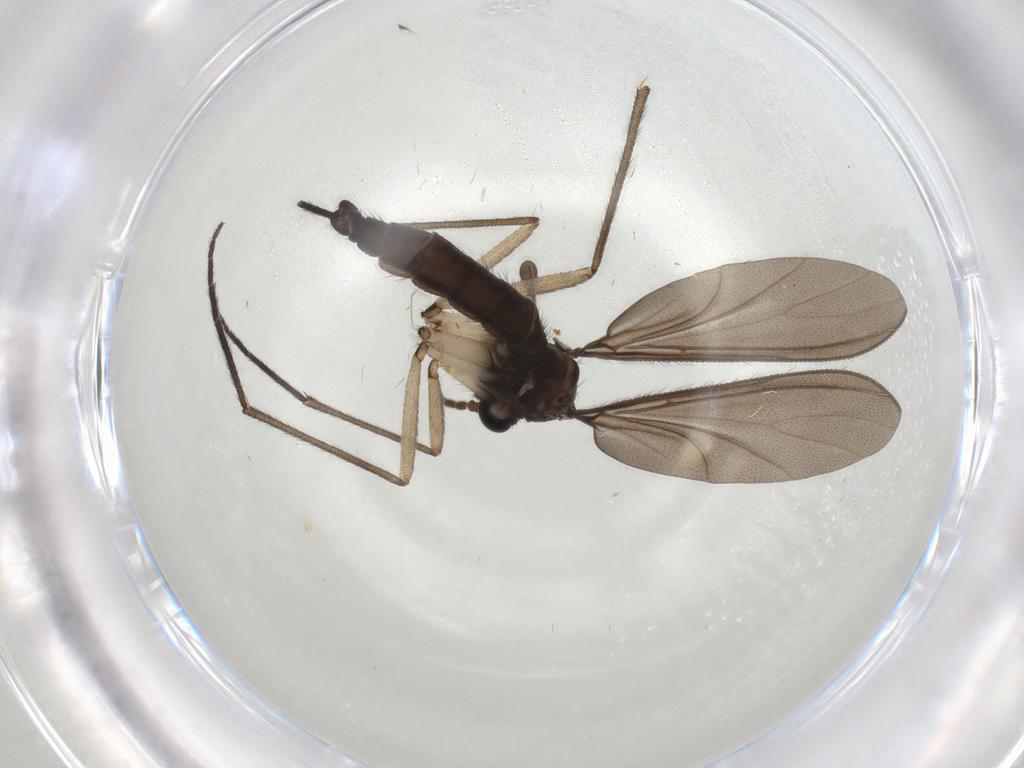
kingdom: Animalia
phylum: Arthropoda
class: Insecta
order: Diptera
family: Sciaridae
